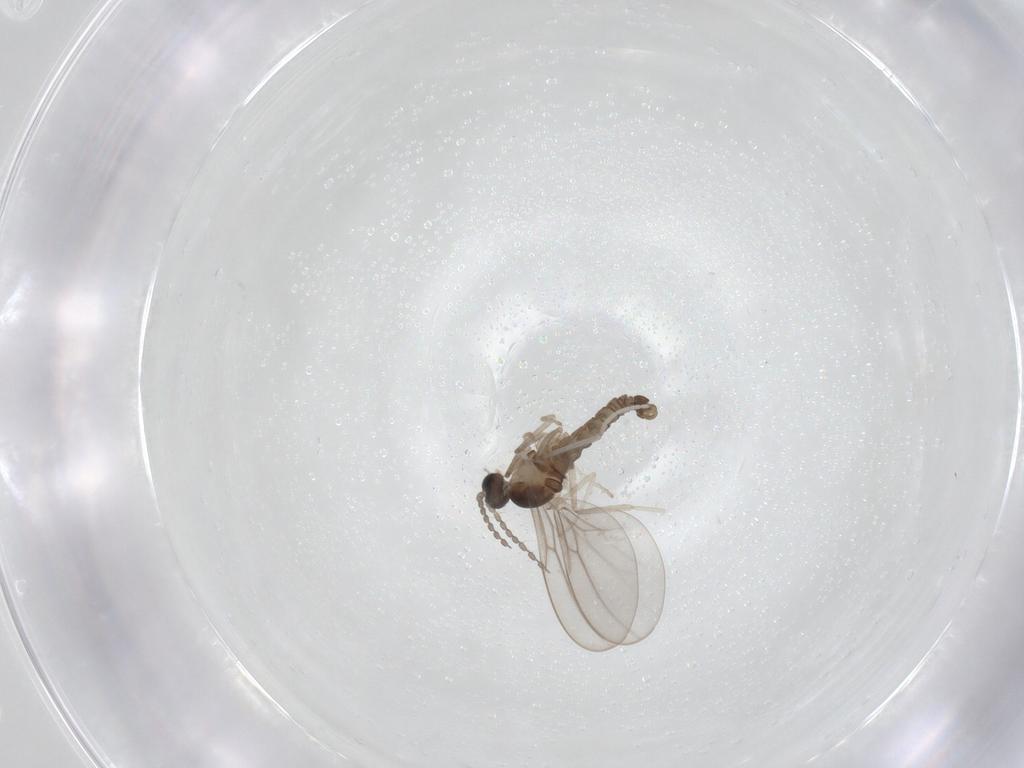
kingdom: Animalia
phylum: Arthropoda
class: Insecta
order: Diptera
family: Cecidomyiidae
